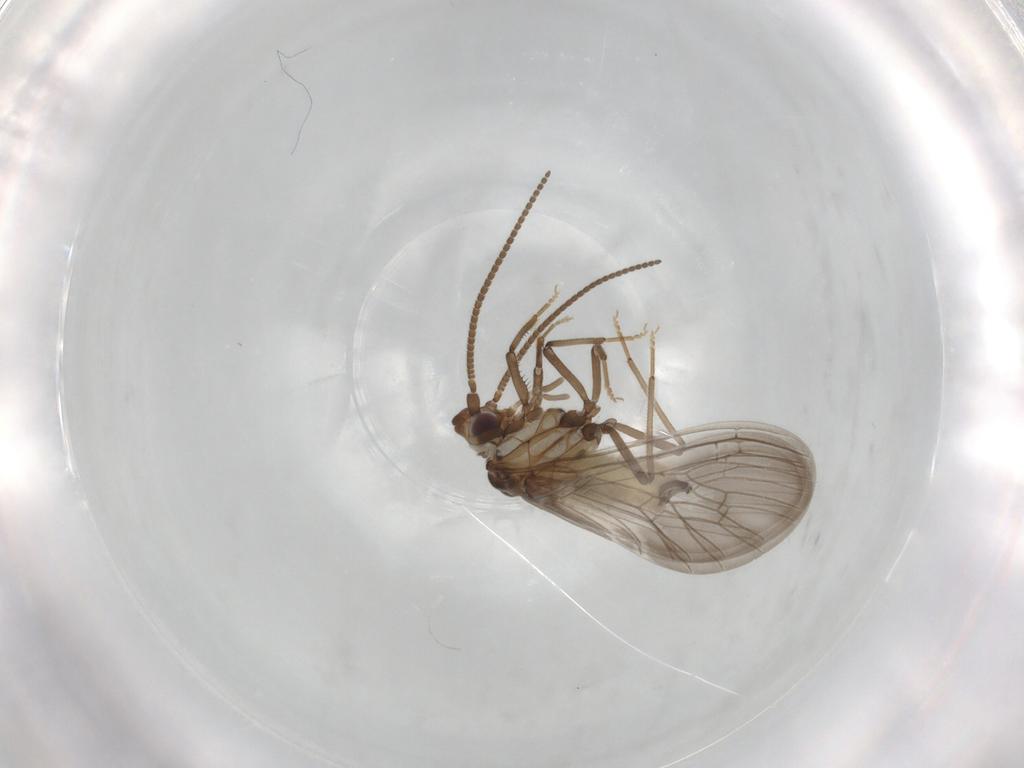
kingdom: Animalia
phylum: Arthropoda
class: Insecta
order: Neuroptera
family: Coniopterygidae
